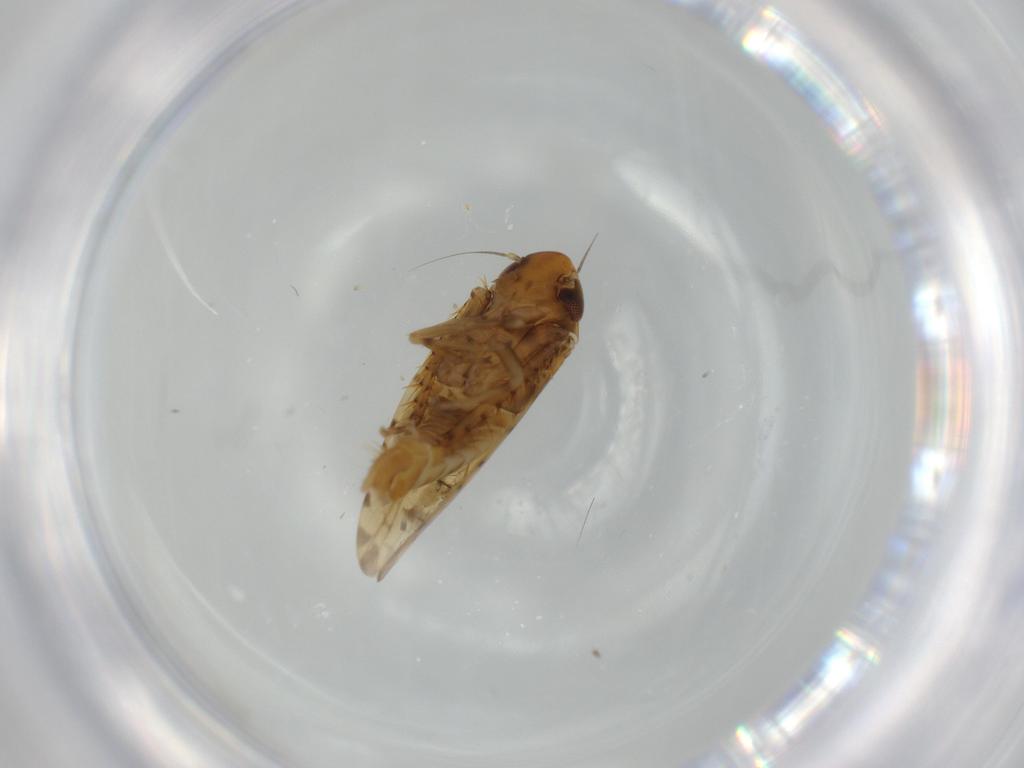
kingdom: Animalia
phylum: Arthropoda
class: Insecta
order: Hemiptera
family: Cicadellidae
